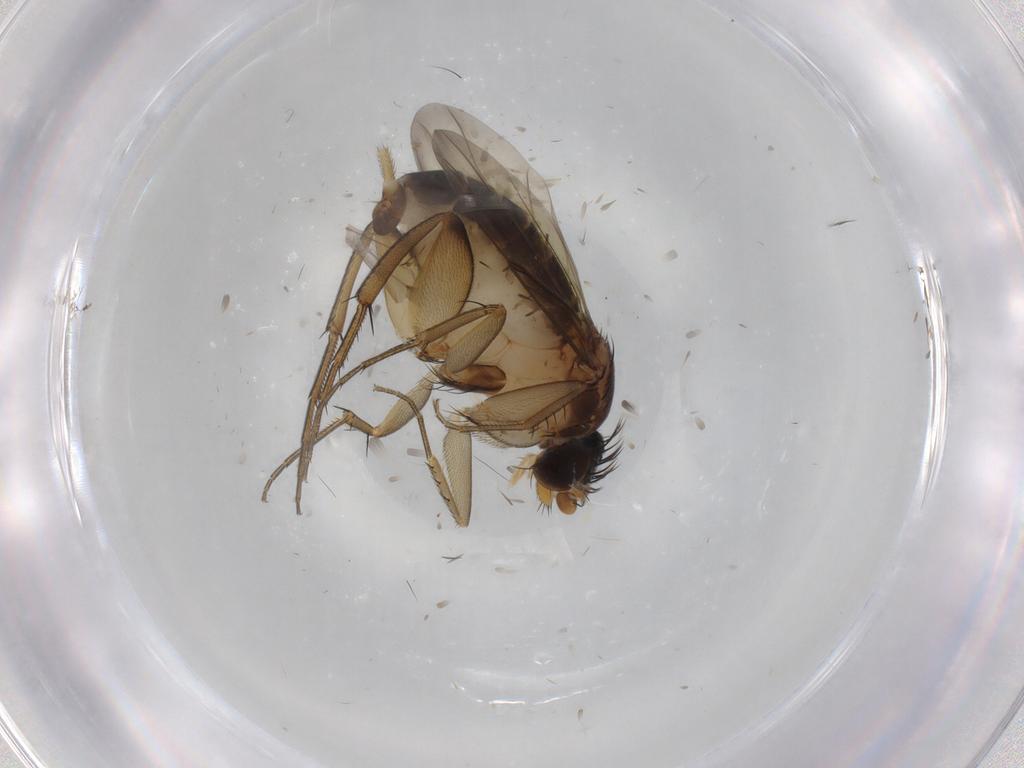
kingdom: Animalia
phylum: Arthropoda
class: Insecta
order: Diptera
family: Phoridae
